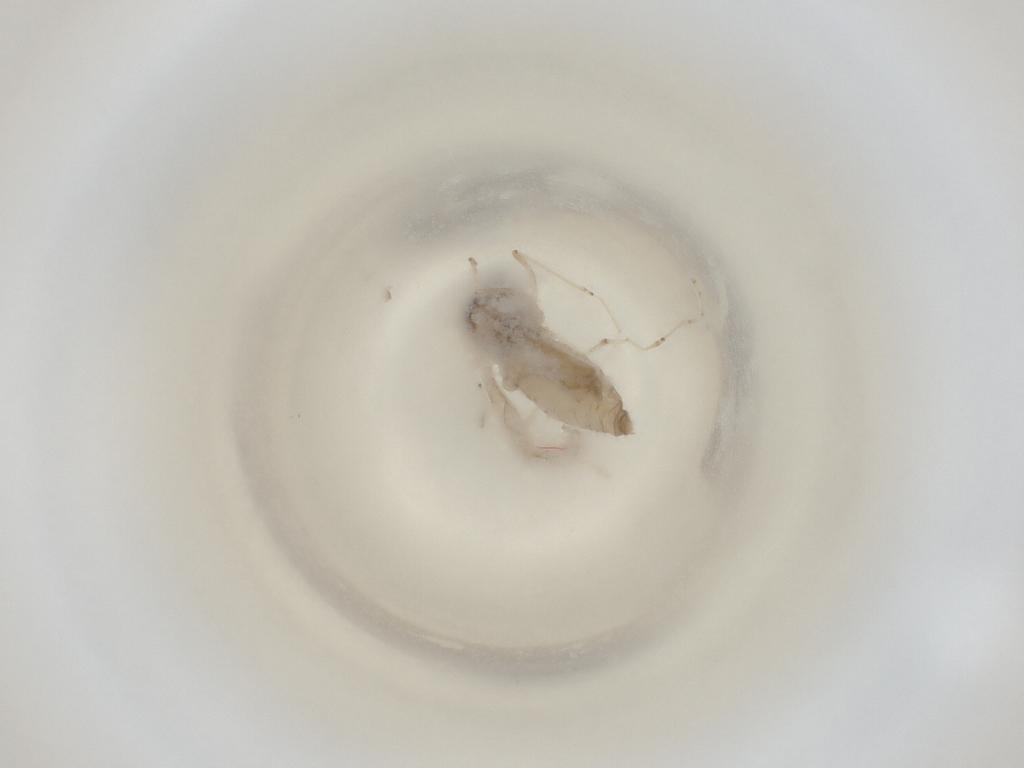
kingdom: Animalia
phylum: Arthropoda
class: Insecta
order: Diptera
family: Cecidomyiidae
